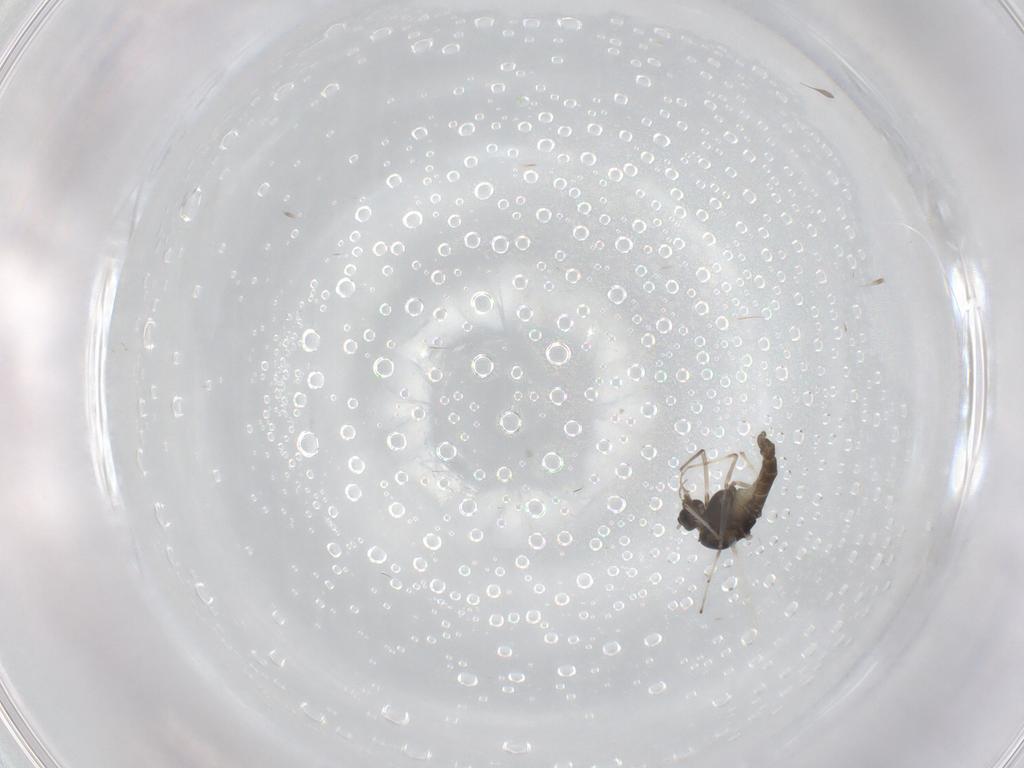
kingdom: Animalia
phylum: Arthropoda
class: Insecta
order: Diptera
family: Chironomidae
